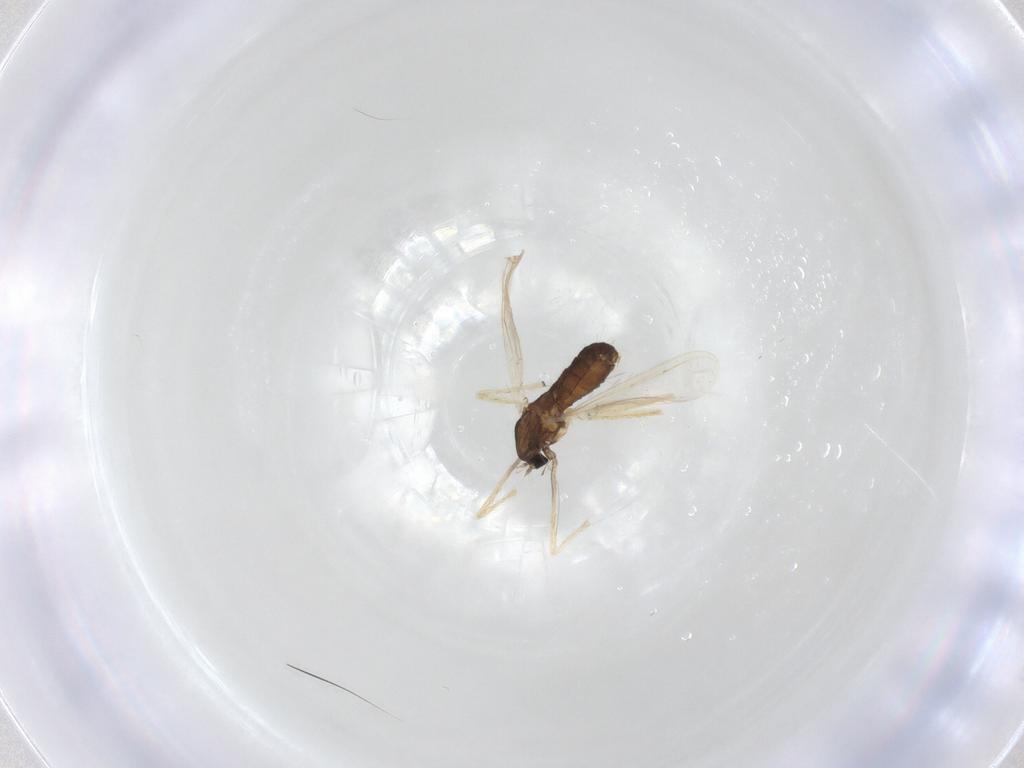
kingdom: Animalia
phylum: Arthropoda
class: Insecta
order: Diptera
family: Chironomidae
